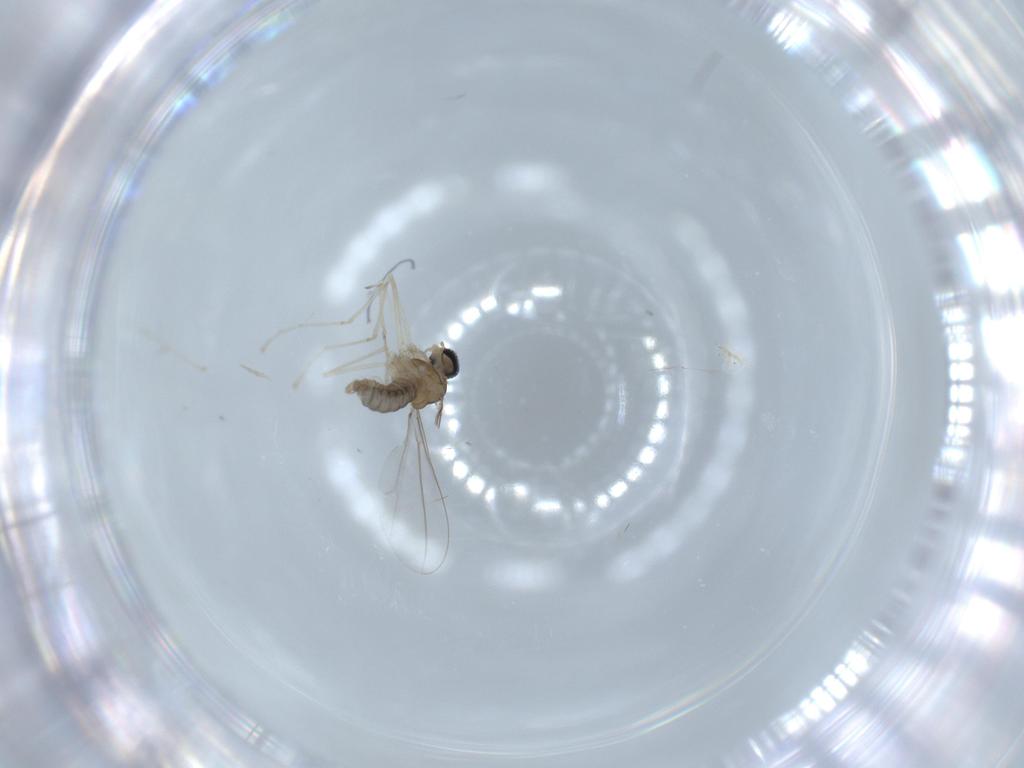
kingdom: Animalia
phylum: Arthropoda
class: Insecta
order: Diptera
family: Cecidomyiidae
